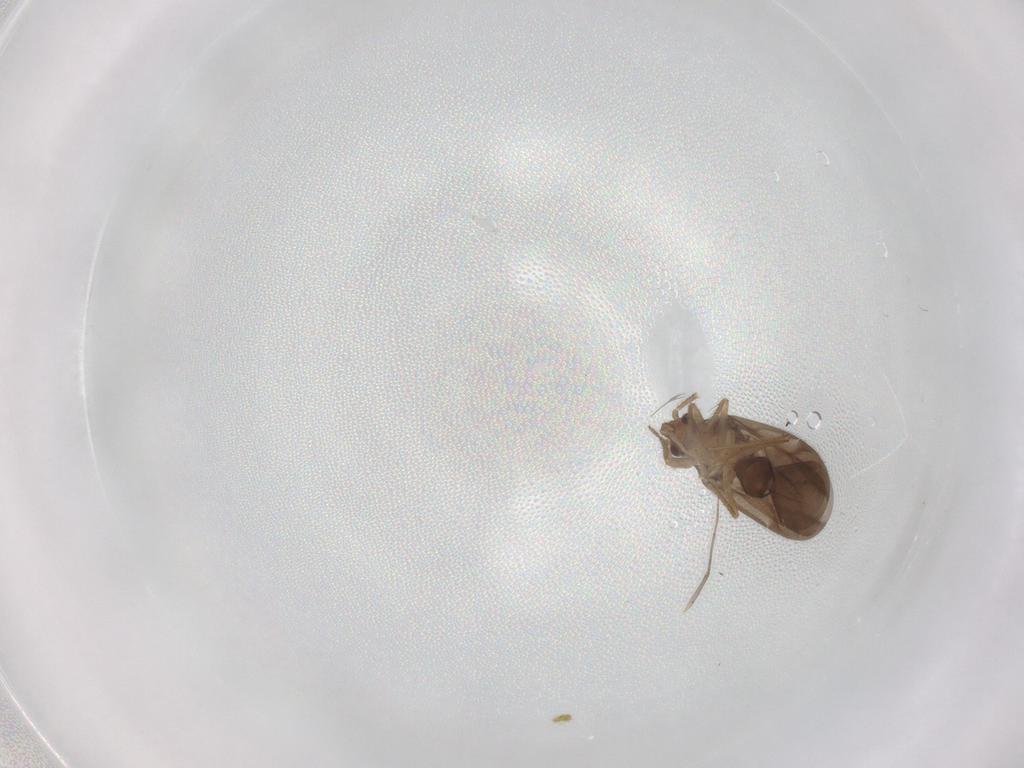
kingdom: Animalia
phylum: Arthropoda
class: Insecta
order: Hemiptera
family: Ceratocombidae
